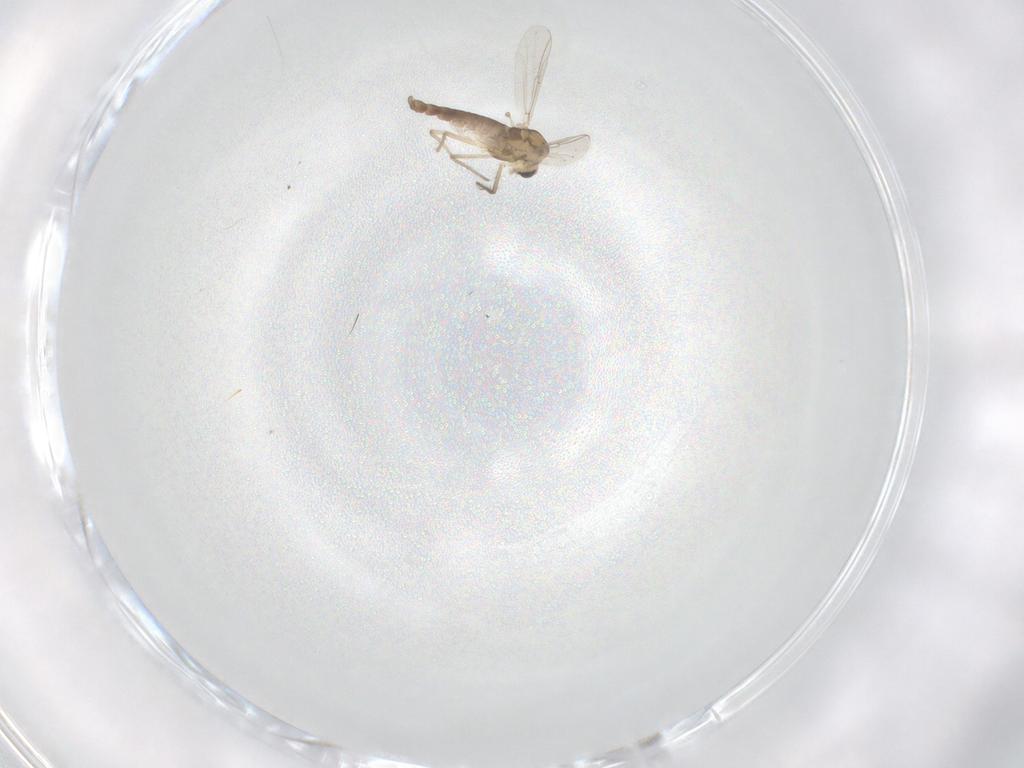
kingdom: Animalia
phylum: Arthropoda
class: Insecta
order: Diptera
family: Chironomidae
